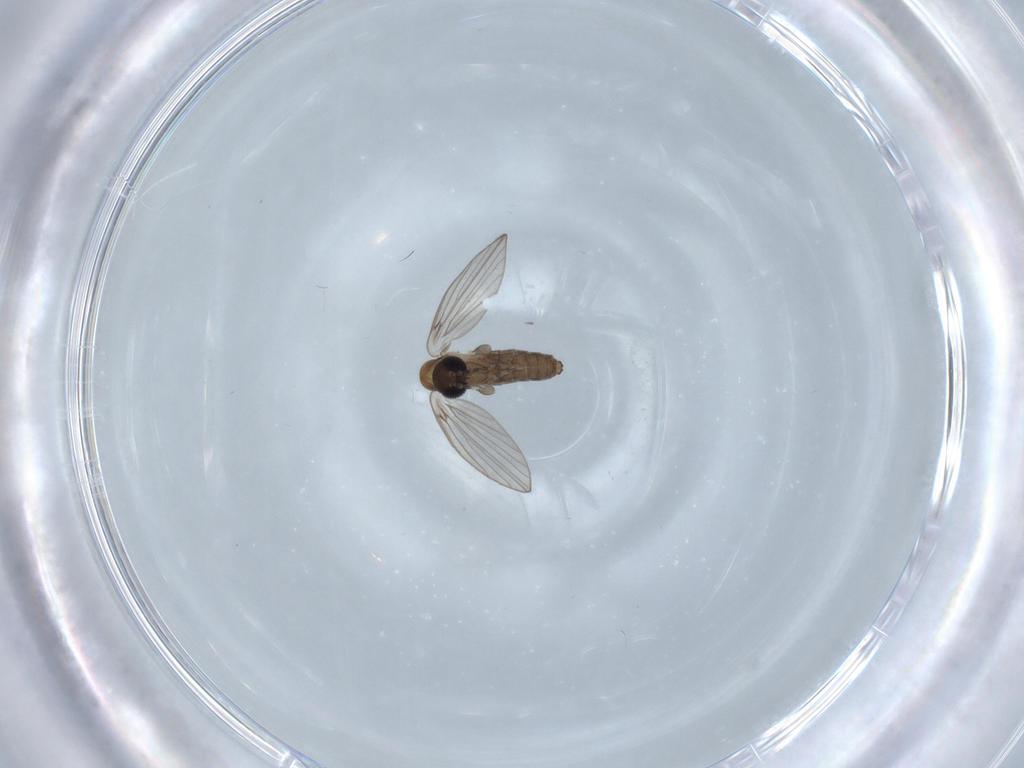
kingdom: Animalia
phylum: Arthropoda
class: Insecta
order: Diptera
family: Psychodidae
